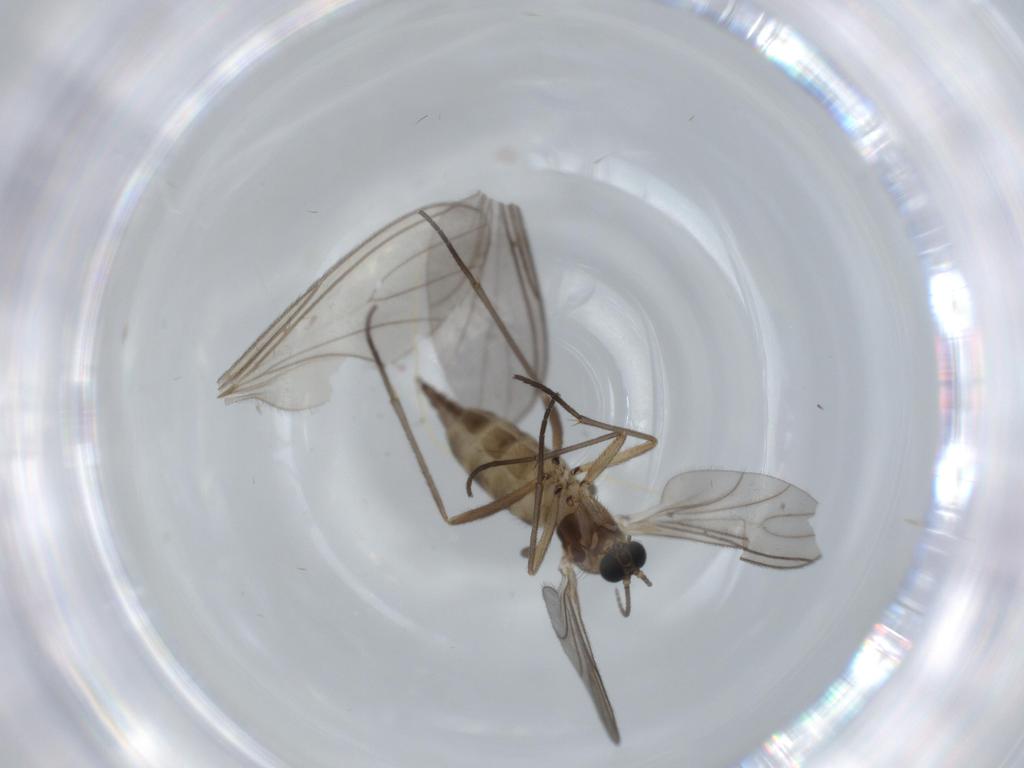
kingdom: Animalia
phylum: Arthropoda
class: Insecta
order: Diptera
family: Sciaridae
